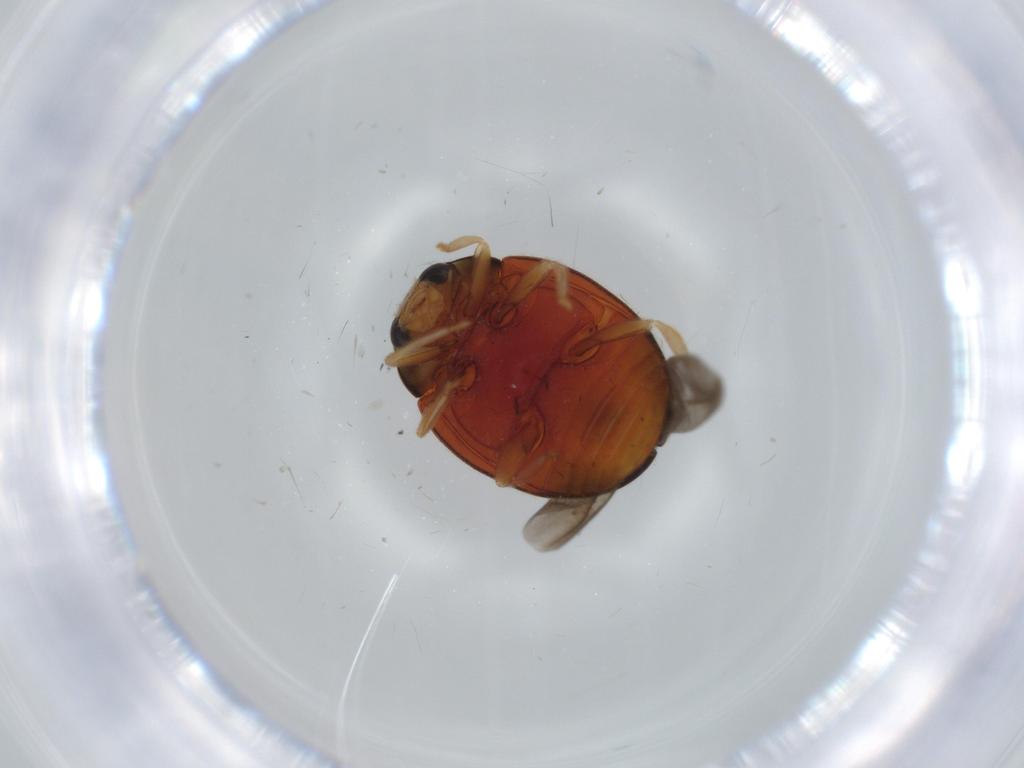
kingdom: Animalia
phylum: Arthropoda
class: Insecta
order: Coleoptera
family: Coccinellidae
